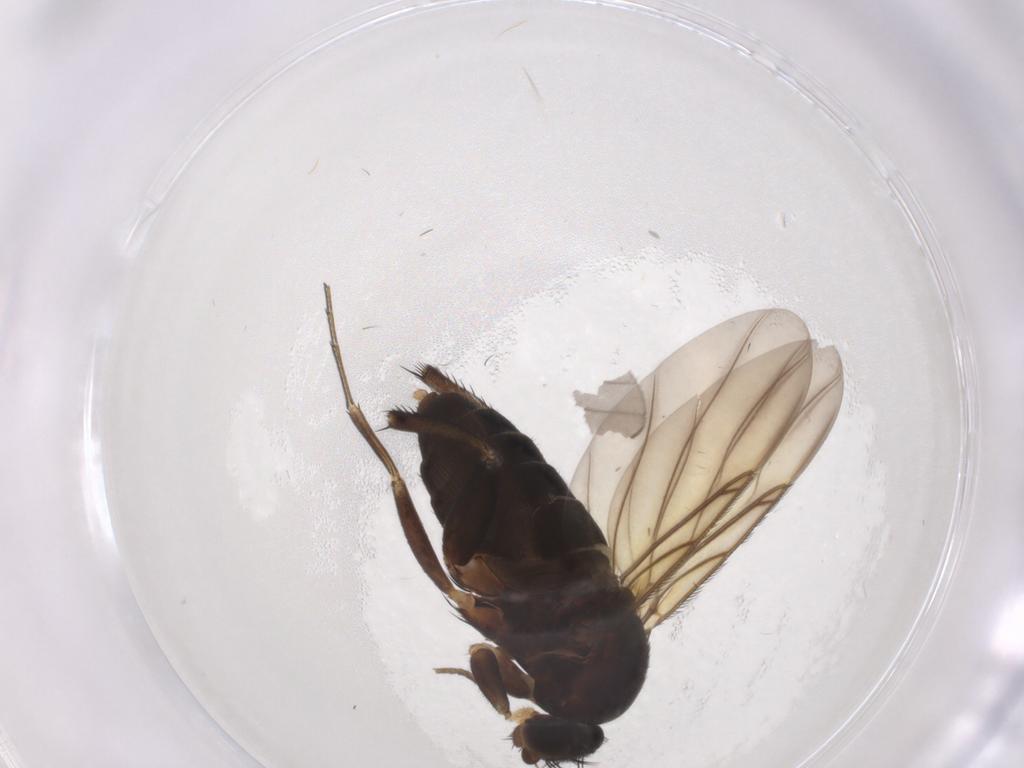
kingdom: Animalia
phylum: Arthropoda
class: Insecta
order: Diptera
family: Phoridae
